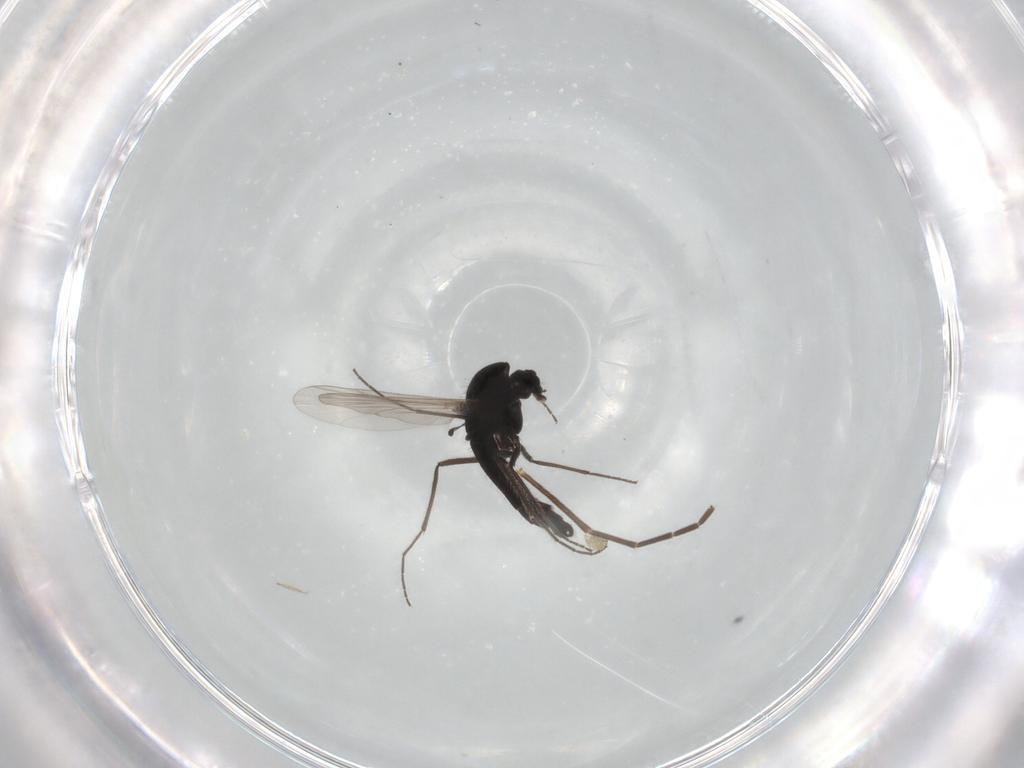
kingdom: Animalia
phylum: Arthropoda
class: Insecta
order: Diptera
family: Chironomidae
